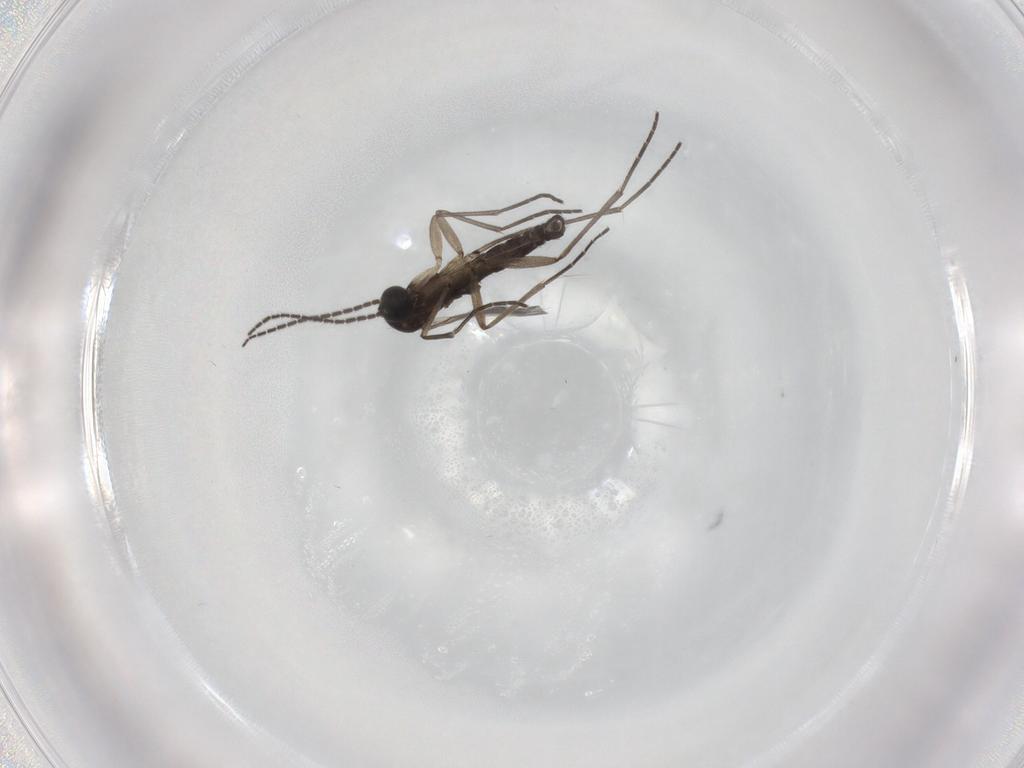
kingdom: Animalia
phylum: Arthropoda
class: Insecta
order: Diptera
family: Sciaridae
